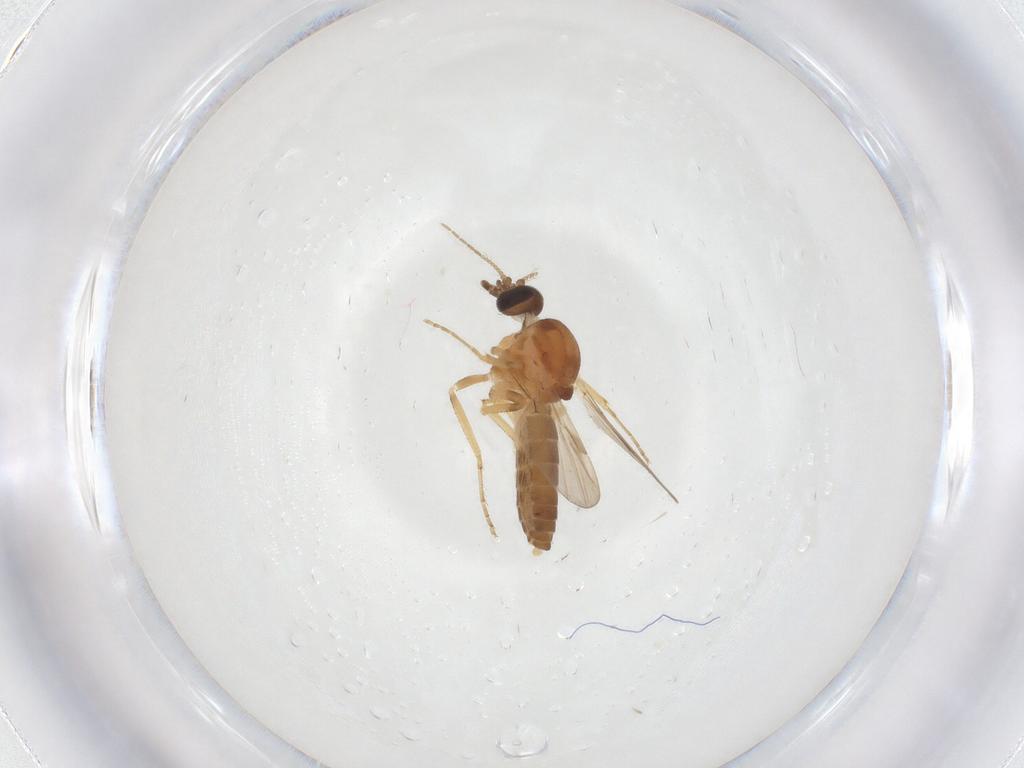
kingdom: Animalia
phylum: Arthropoda
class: Insecta
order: Diptera
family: Ceratopogonidae
